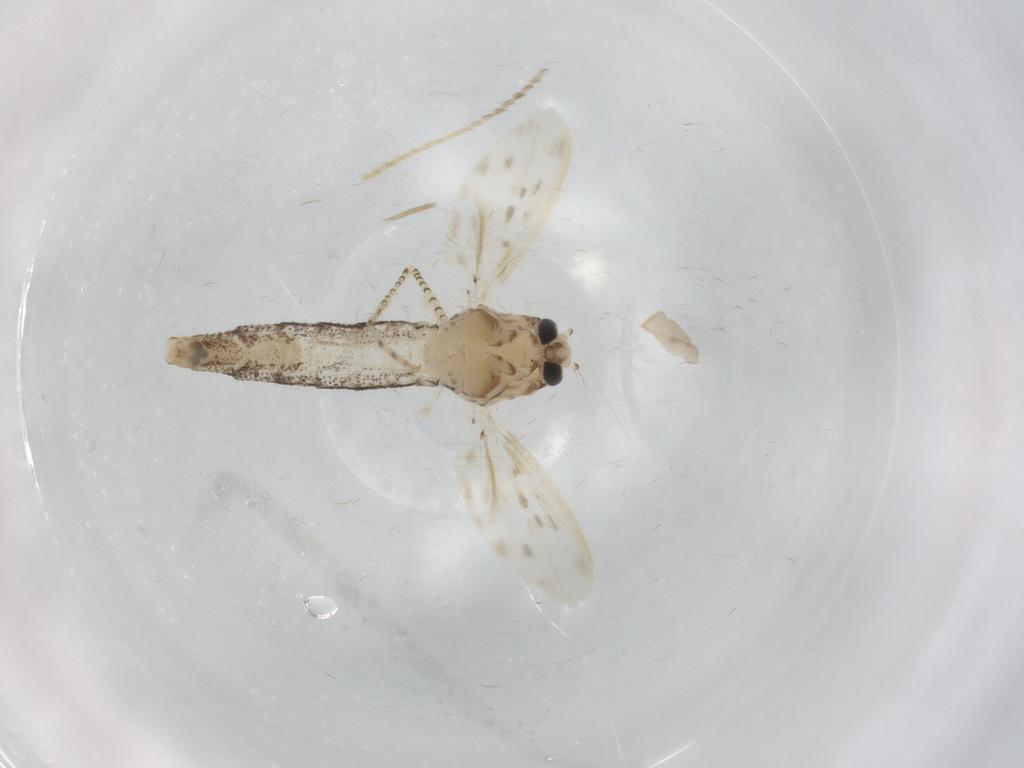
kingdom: Animalia
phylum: Arthropoda
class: Insecta
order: Diptera
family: Chaoboridae
